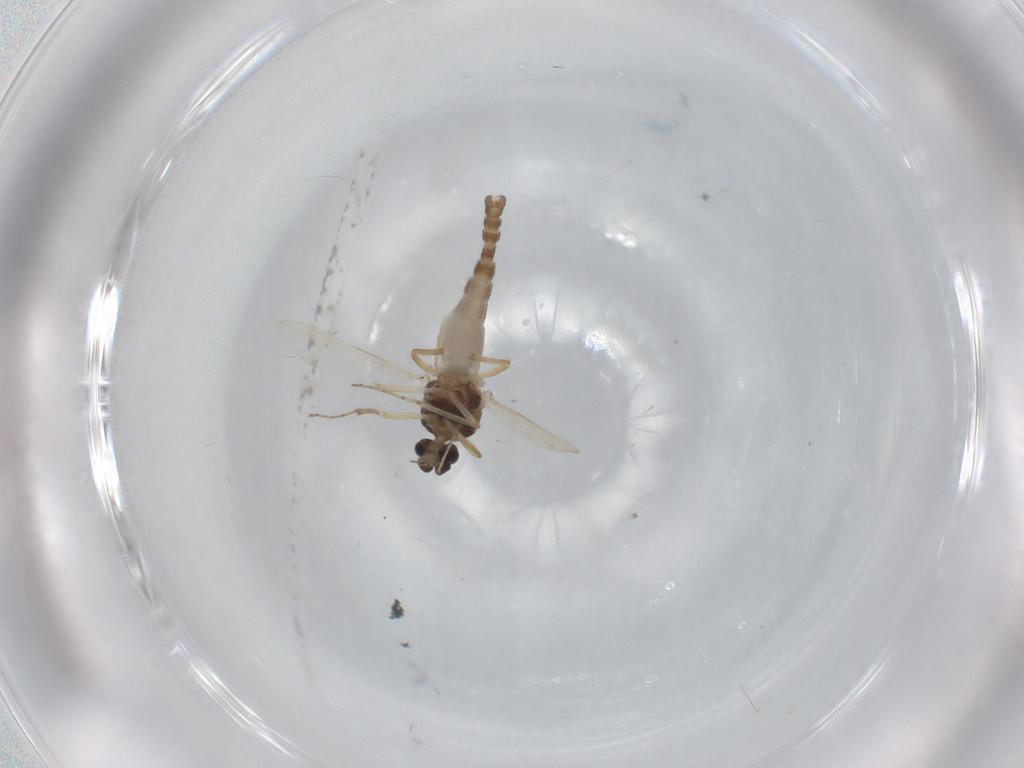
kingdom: Animalia
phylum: Arthropoda
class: Insecta
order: Diptera
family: Ceratopogonidae
